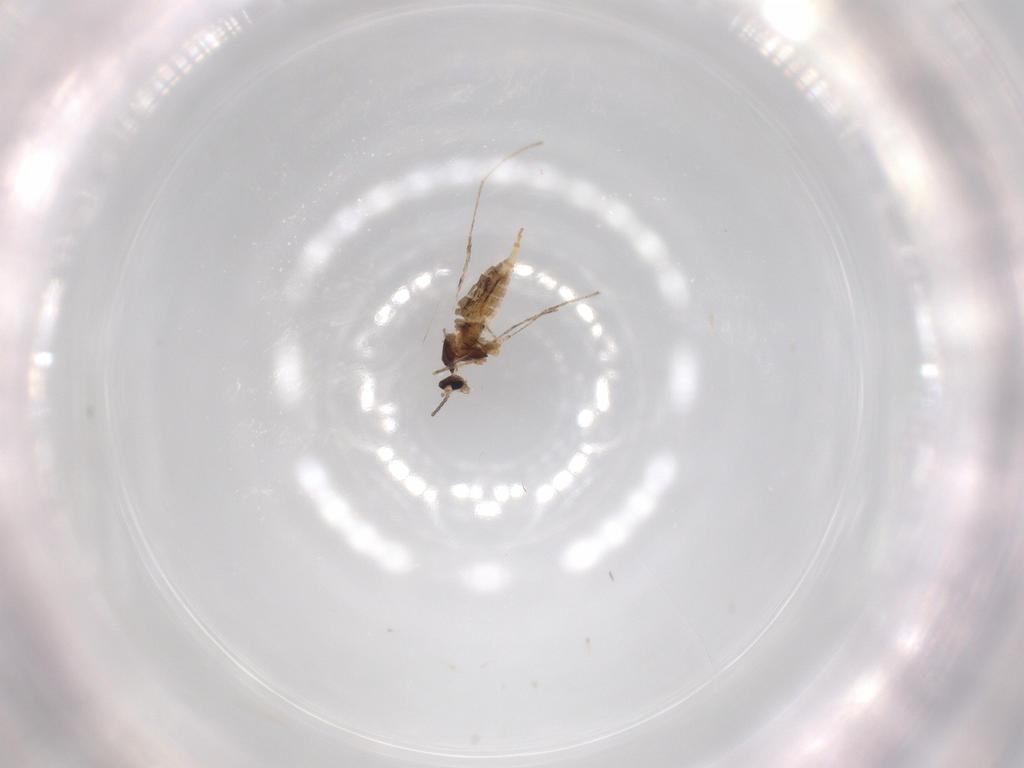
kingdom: Animalia
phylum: Arthropoda
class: Insecta
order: Diptera
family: Cecidomyiidae
